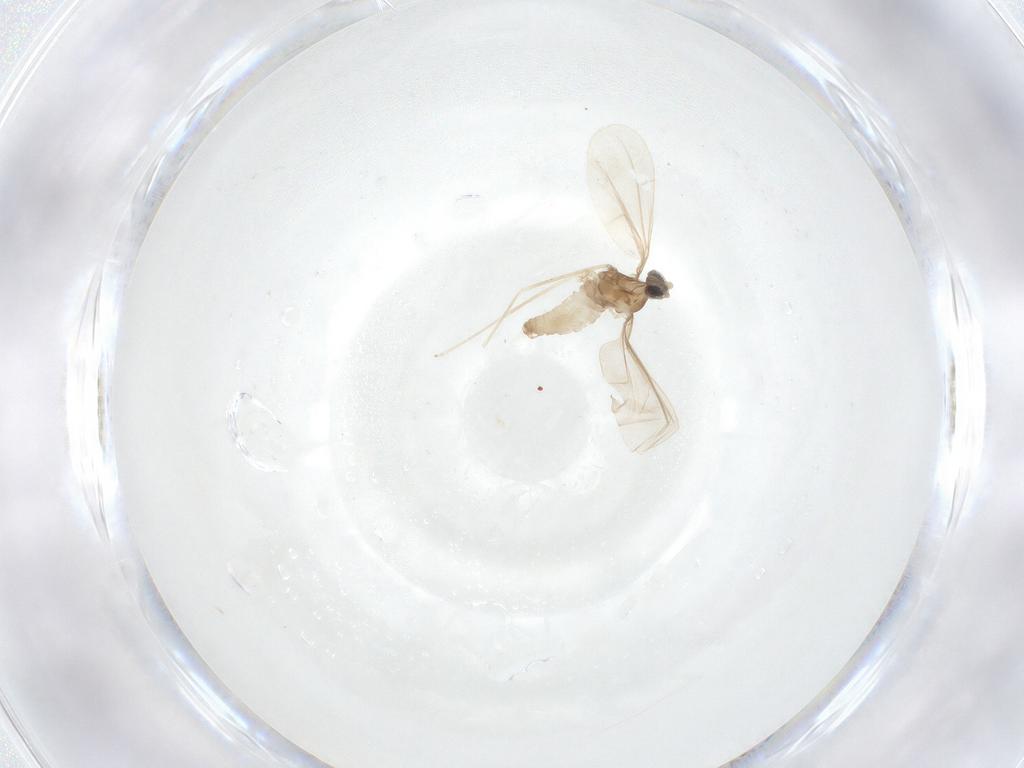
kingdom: Animalia
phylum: Arthropoda
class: Insecta
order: Diptera
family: Cecidomyiidae
